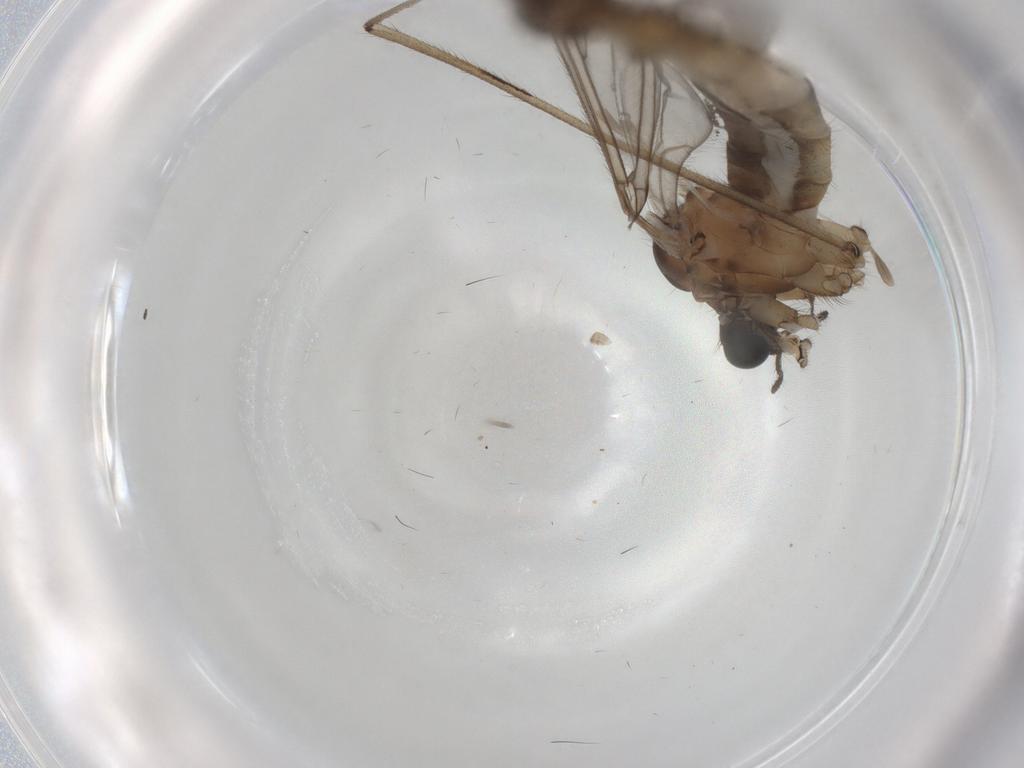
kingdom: Animalia
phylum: Arthropoda
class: Insecta
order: Diptera
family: Trichoceridae
